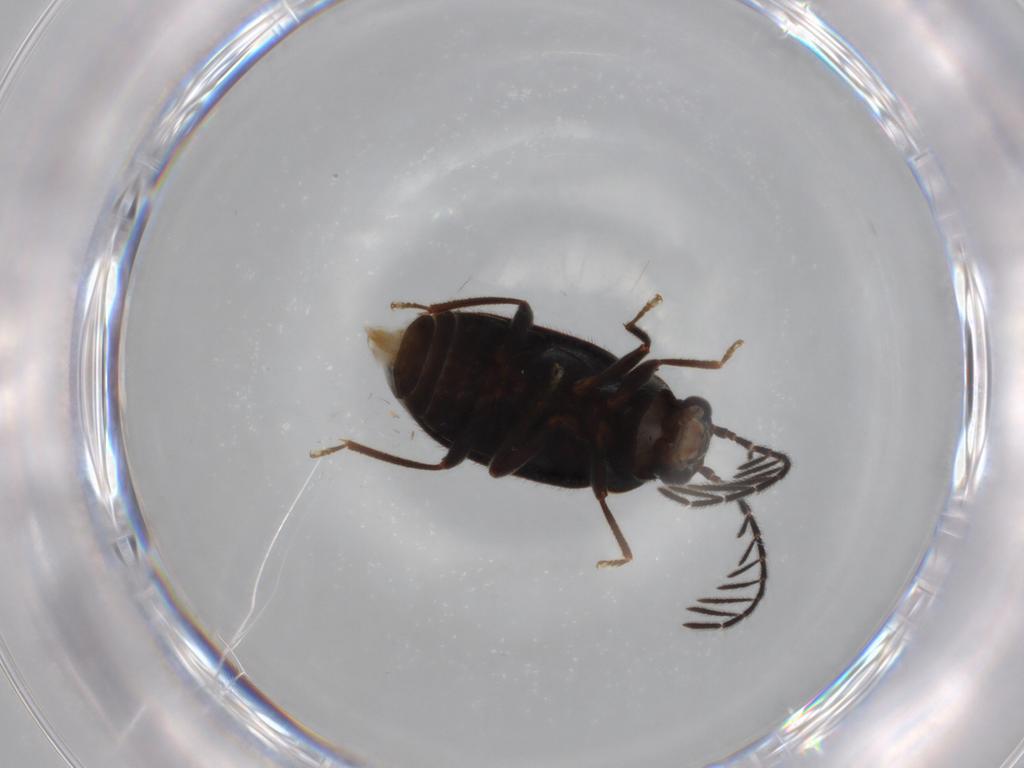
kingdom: Animalia
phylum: Arthropoda
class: Insecta
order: Coleoptera
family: Ptilodactylidae
